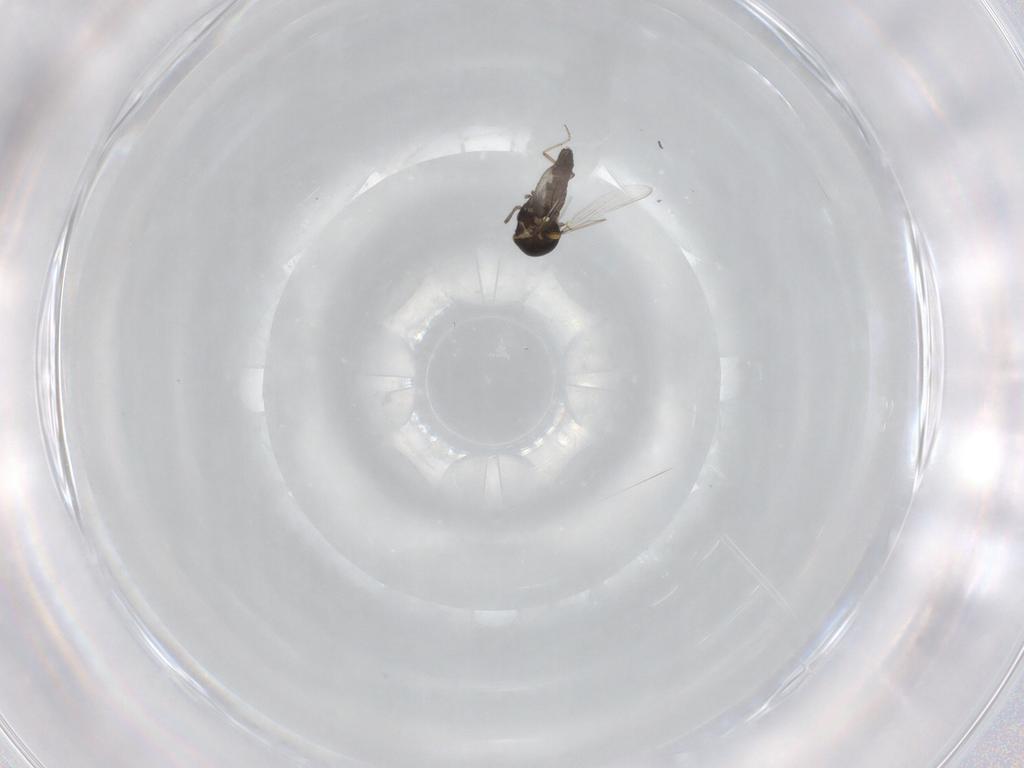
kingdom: Animalia
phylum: Arthropoda
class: Insecta
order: Diptera
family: Ceratopogonidae
